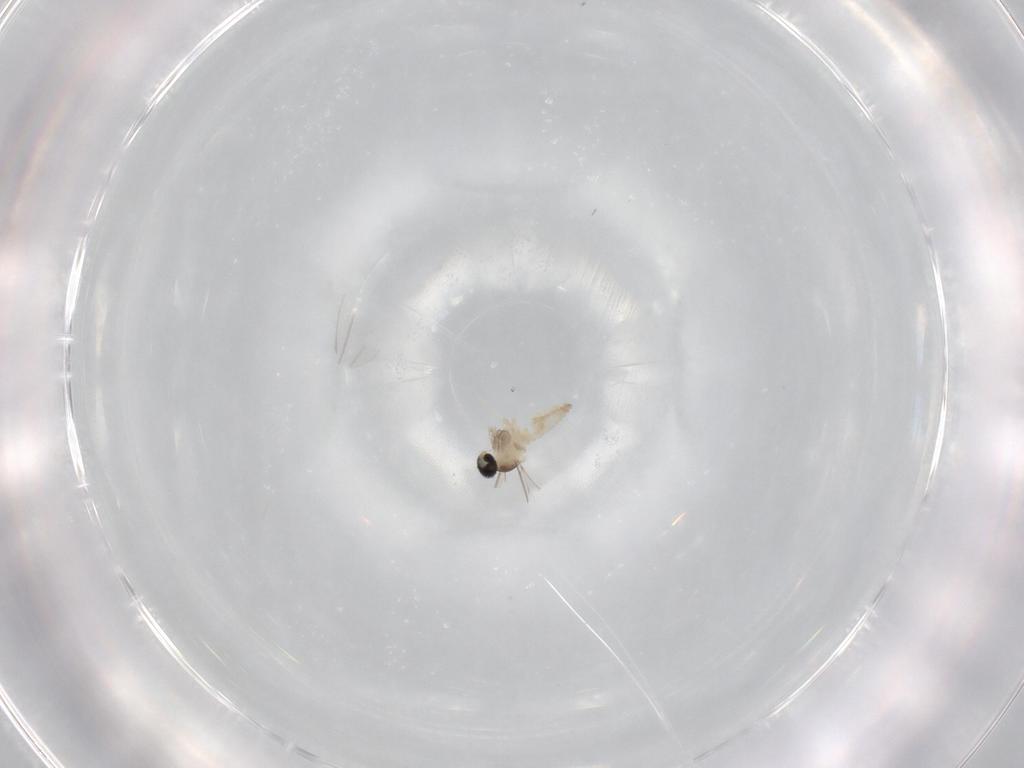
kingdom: Animalia
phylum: Arthropoda
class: Insecta
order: Diptera
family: Cecidomyiidae
